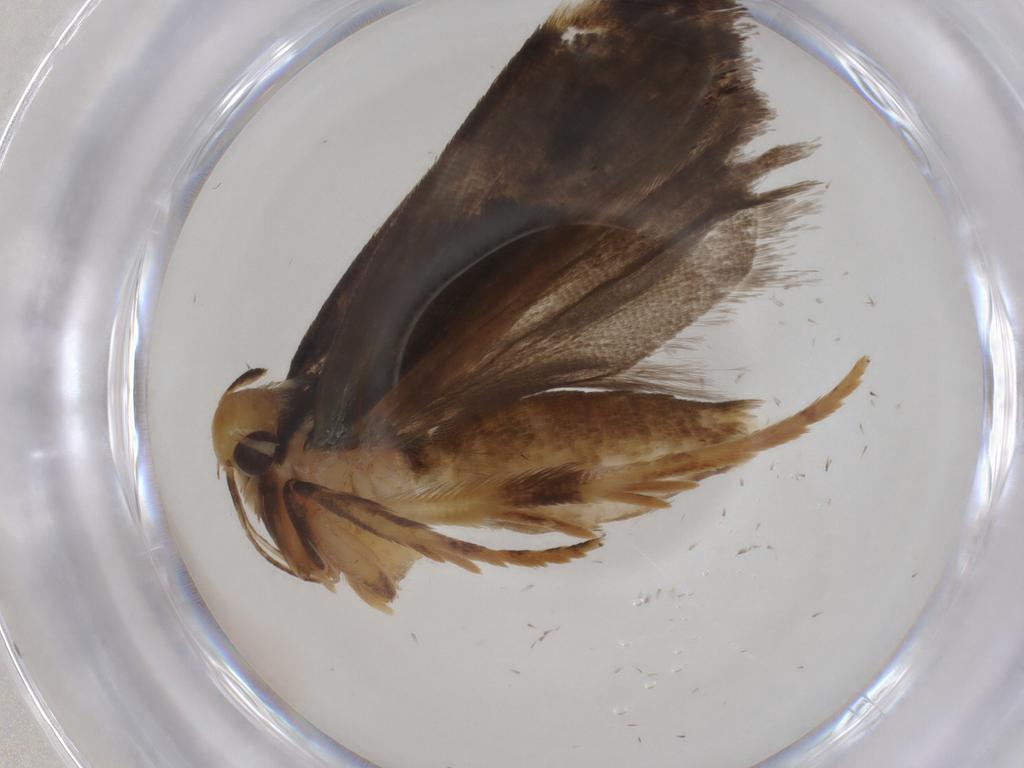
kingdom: Animalia
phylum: Arthropoda
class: Insecta
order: Lepidoptera
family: Gelechiidae
